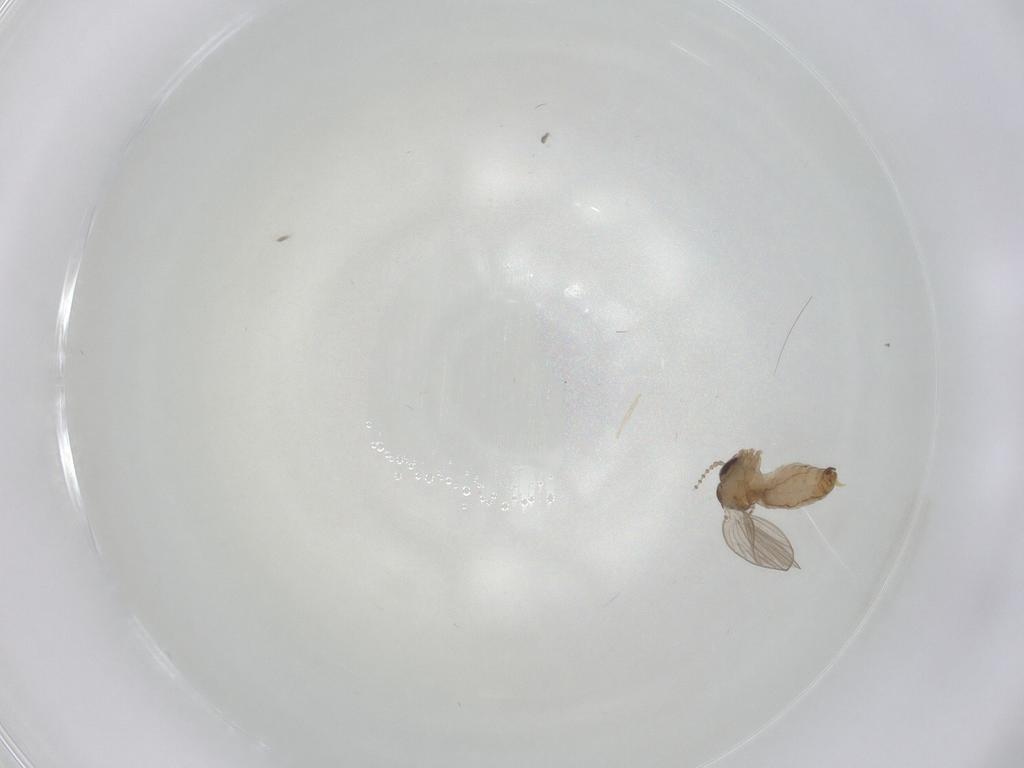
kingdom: Animalia
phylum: Arthropoda
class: Insecta
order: Diptera
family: Psychodidae
